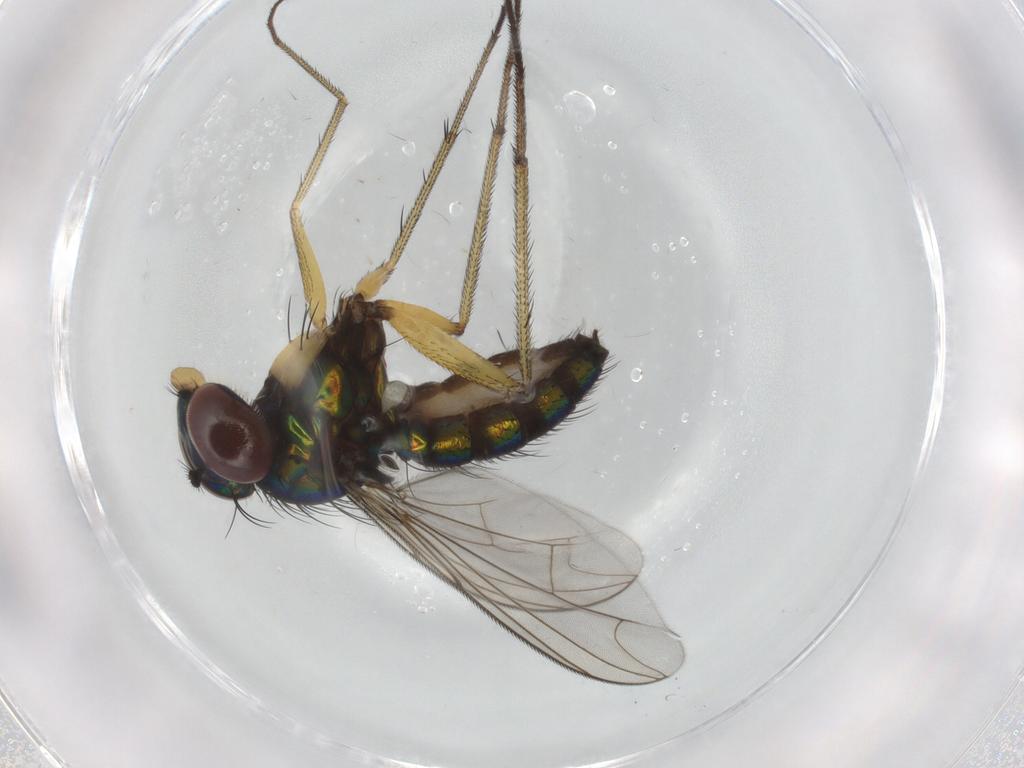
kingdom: Animalia
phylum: Arthropoda
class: Insecta
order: Diptera
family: Dolichopodidae
